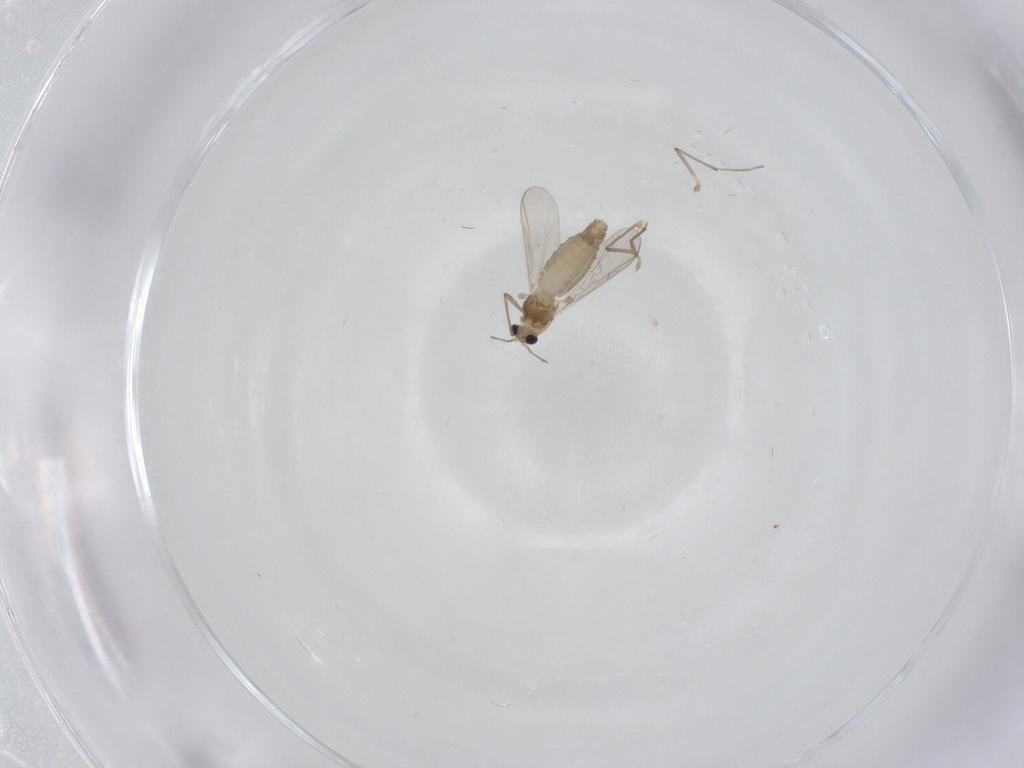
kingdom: Animalia
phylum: Arthropoda
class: Insecta
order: Diptera
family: Chironomidae
